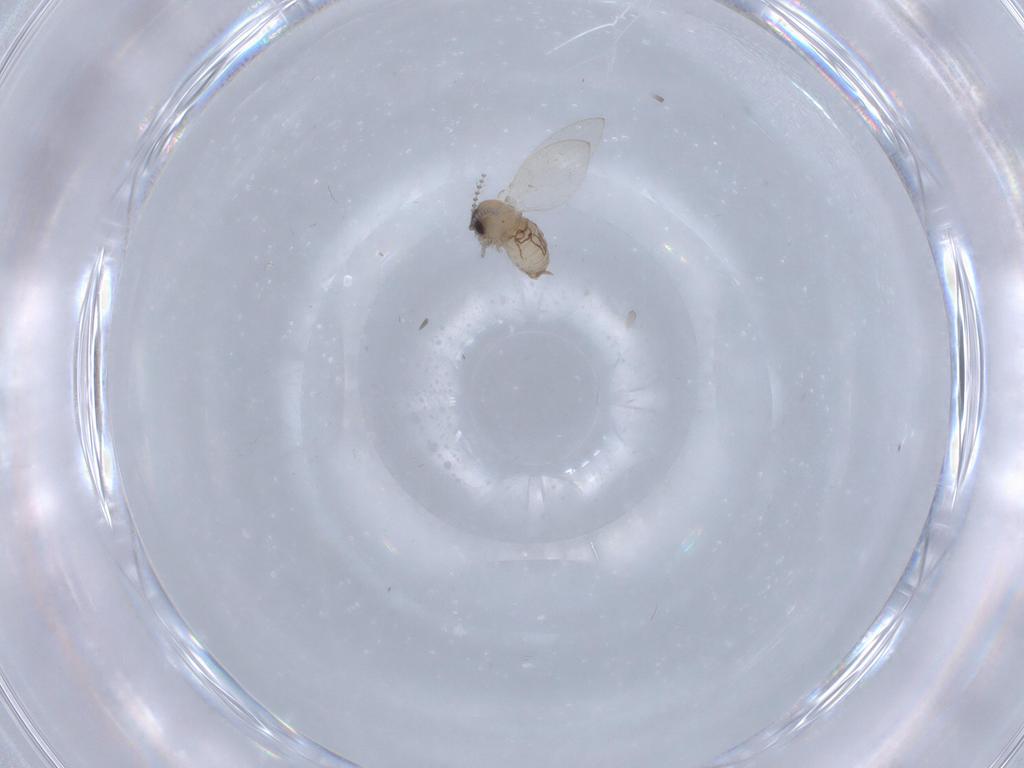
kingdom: Animalia
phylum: Arthropoda
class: Insecta
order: Diptera
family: Psychodidae
